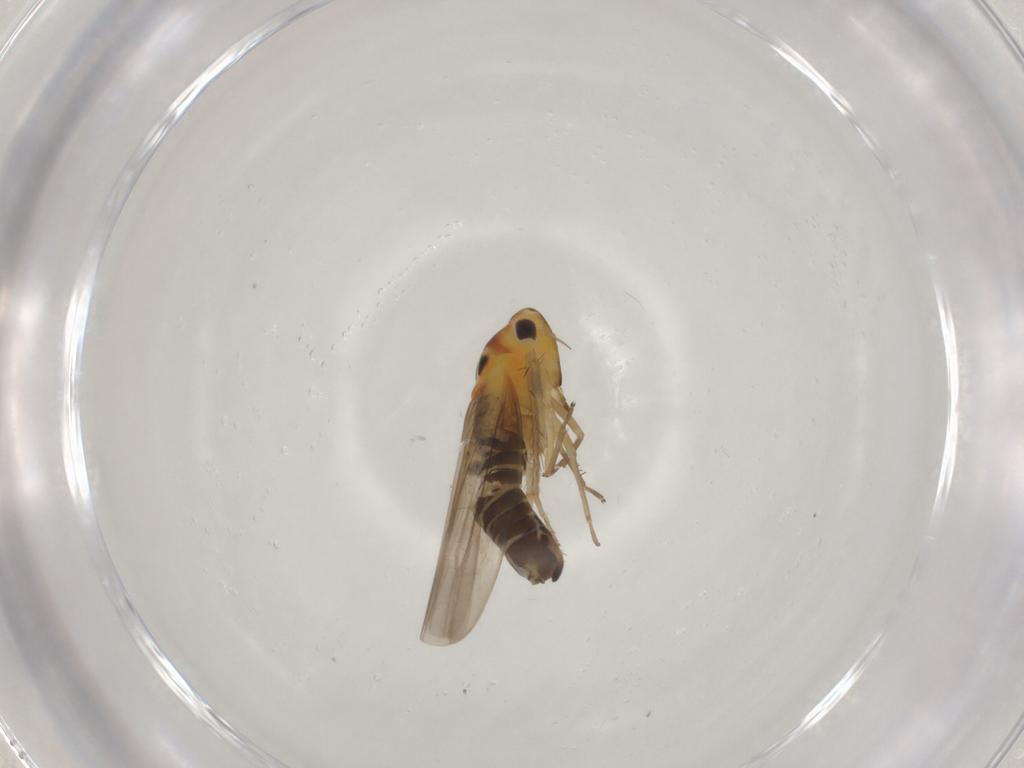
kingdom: Animalia
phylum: Arthropoda
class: Insecta
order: Hemiptera
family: Cicadellidae
